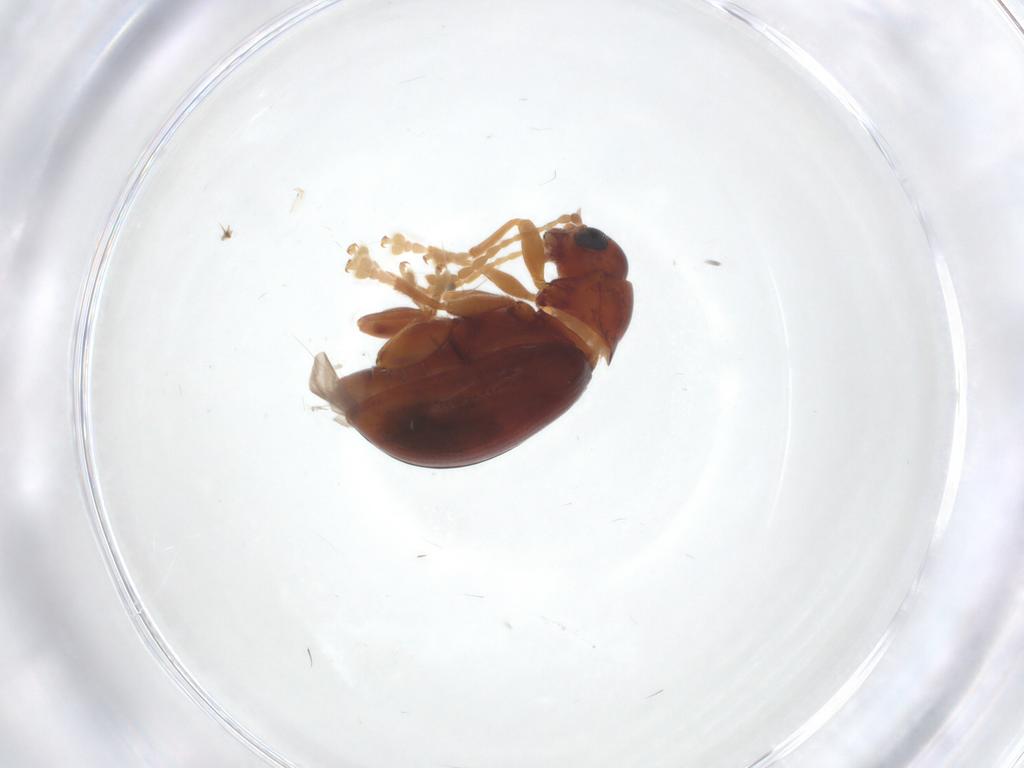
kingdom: Animalia
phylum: Arthropoda
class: Insecta
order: Coleoptera
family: Chrysomelidae
